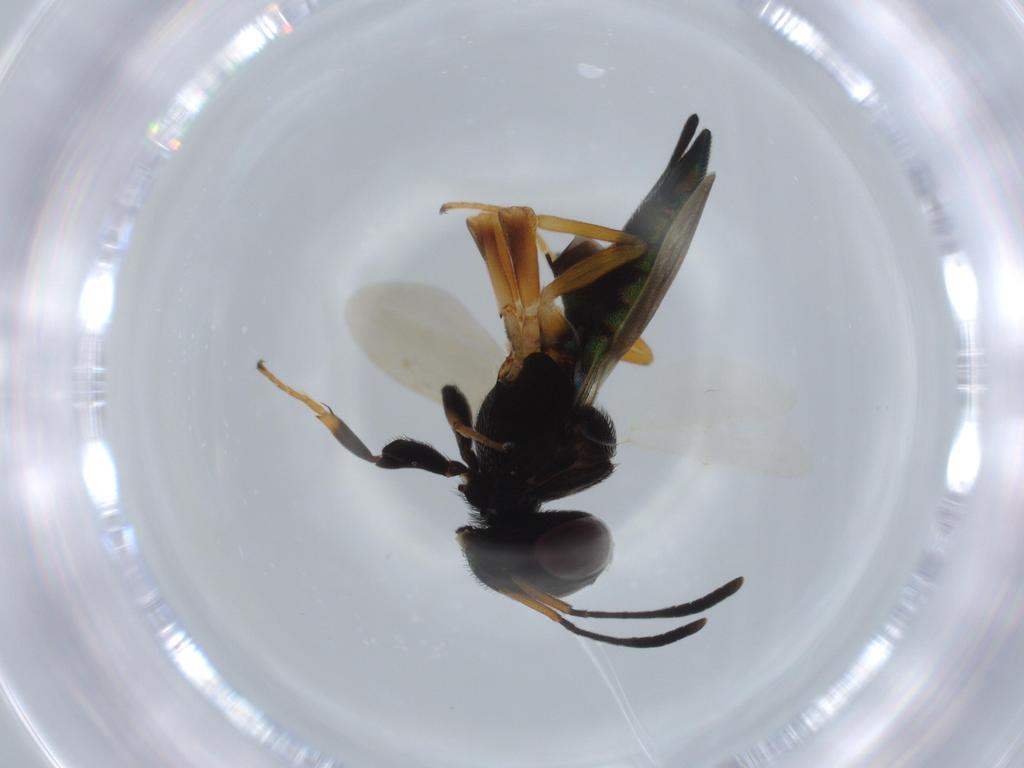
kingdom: Animalia
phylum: Arthropoda
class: Insecta
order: Hymenoptera
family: Eupelmidae
